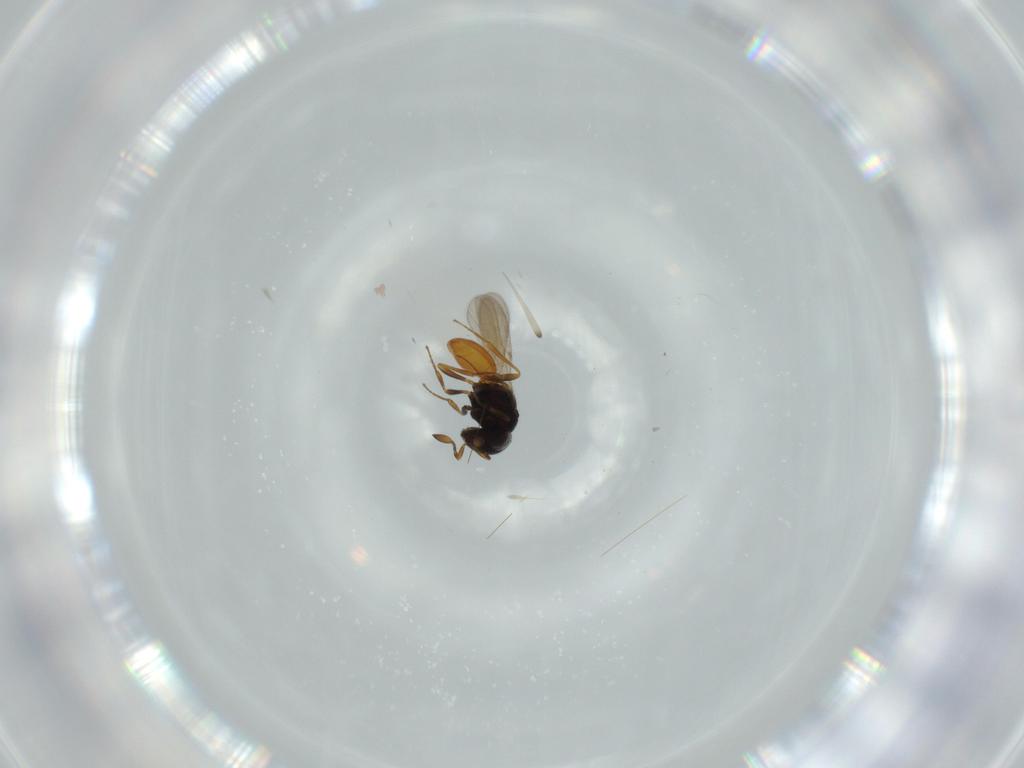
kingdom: Animalia
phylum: Arthropoda
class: Insecta
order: Hymenoptera
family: Scelionidae
